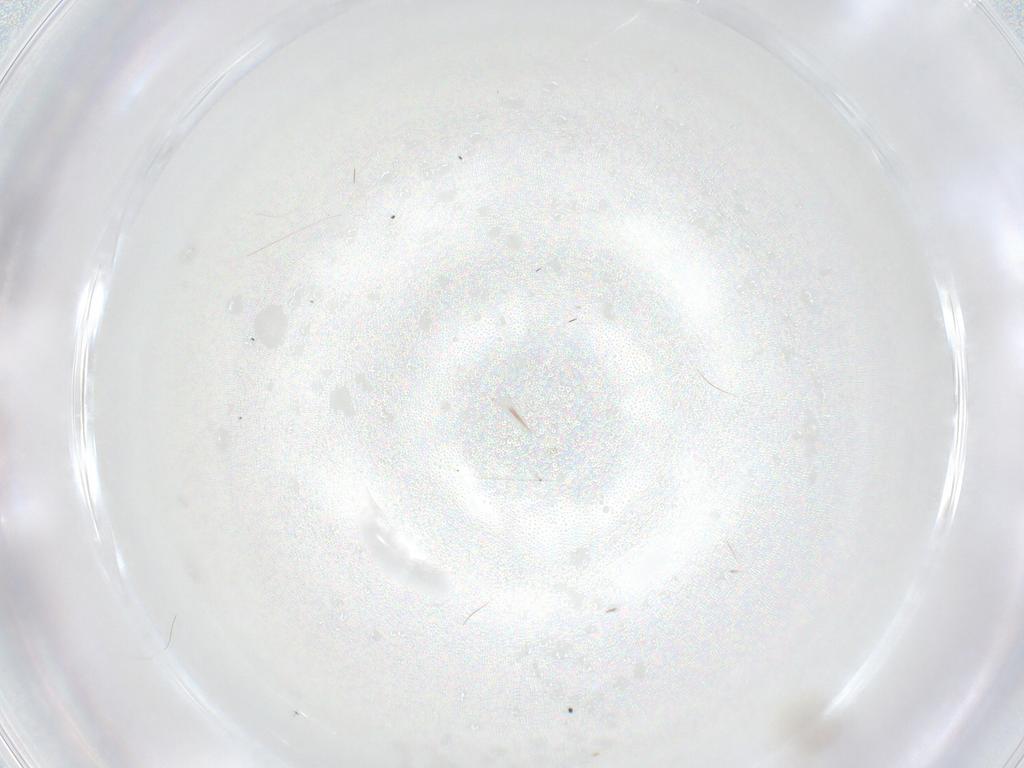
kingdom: Animalia
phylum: Arthropoda
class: Insecta
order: Diptera
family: Cecidomyiidae
